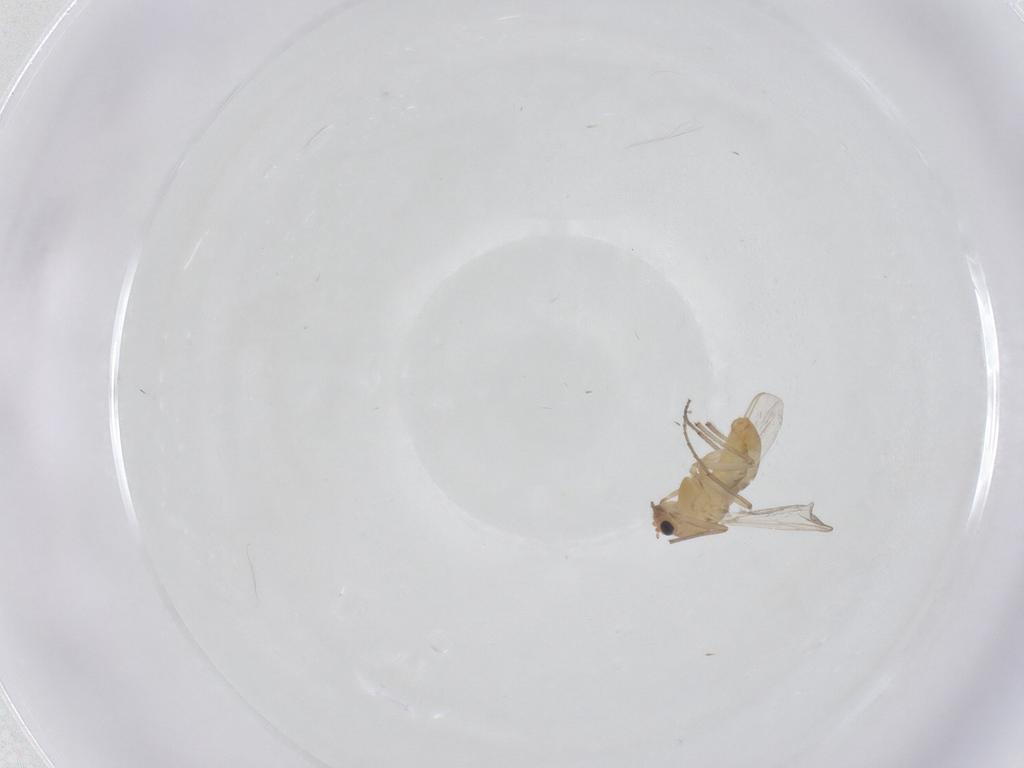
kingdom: Animalia
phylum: Arthropoda
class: Insecta
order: Diptera
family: Chironomidae
